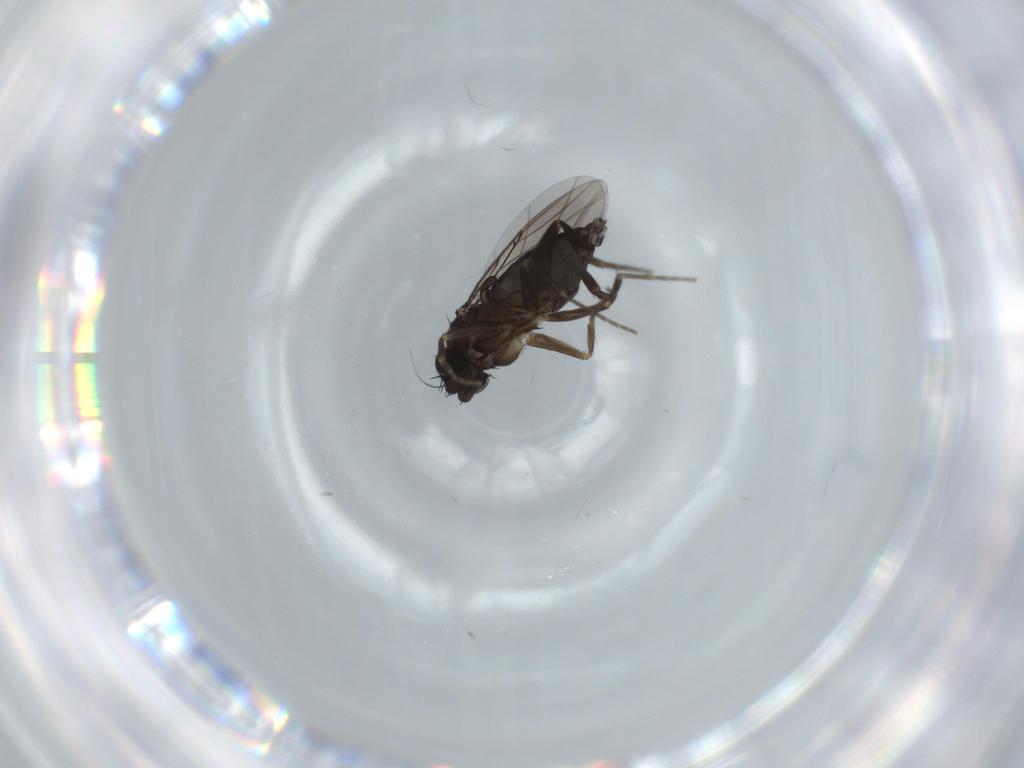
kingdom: Animalia
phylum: Arthropoda
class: Insecta
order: Diptera
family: Phoridae
